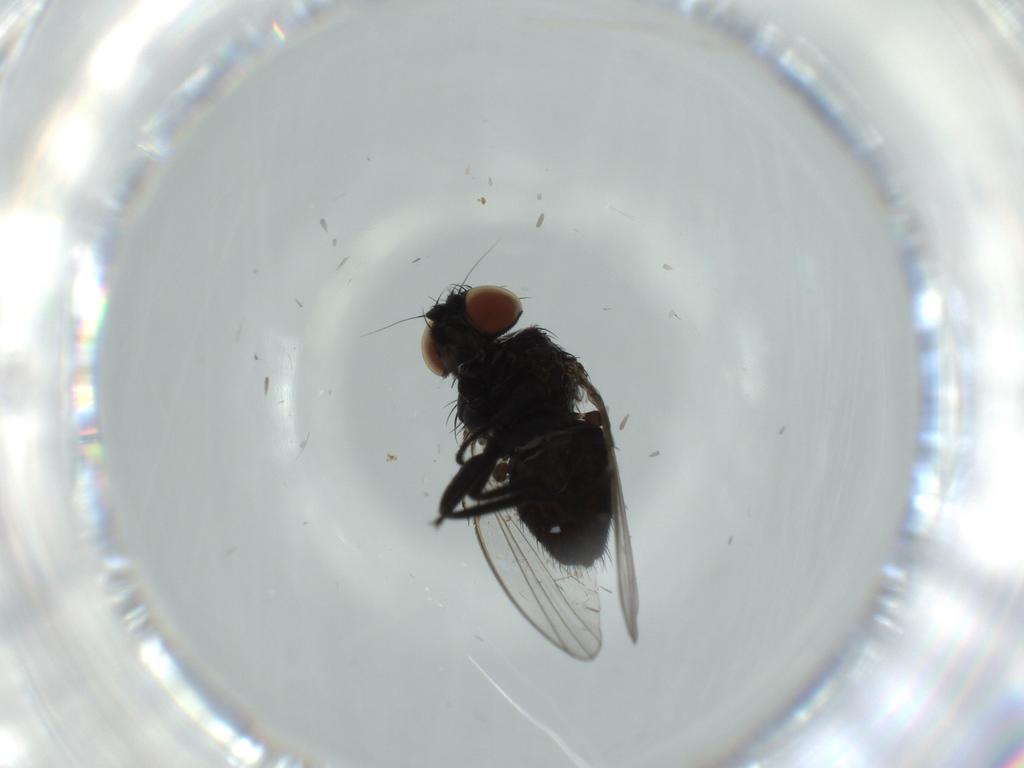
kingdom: Animalia
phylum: Arthropoda
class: Insecta
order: Diptera
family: Milichiidae
